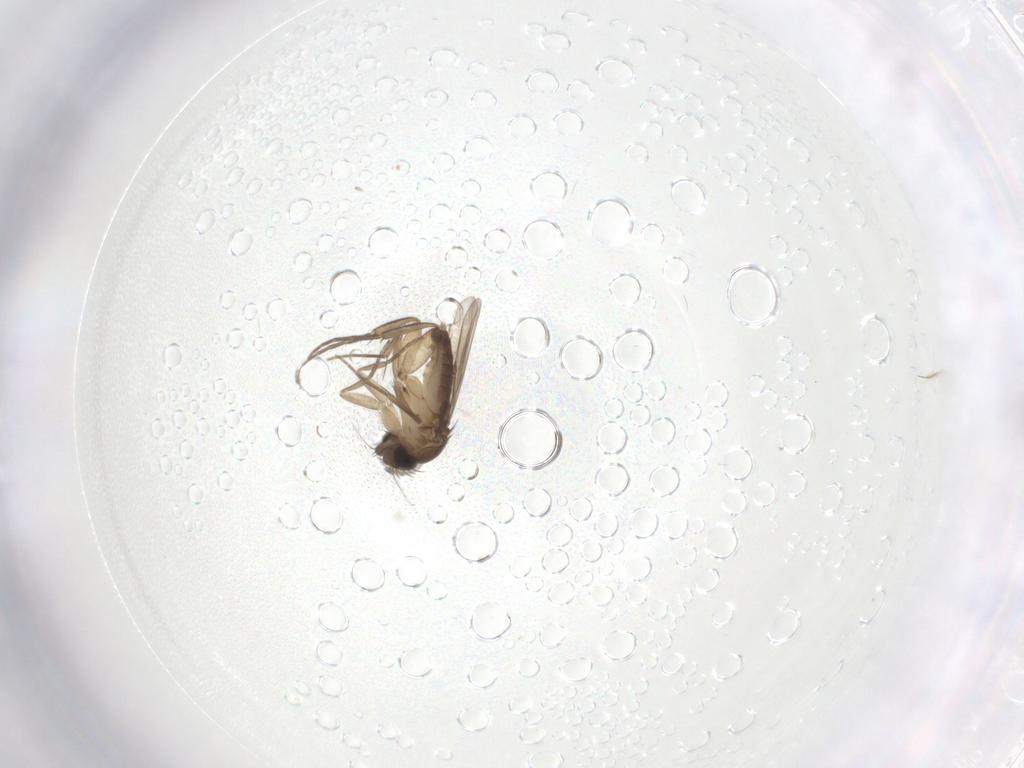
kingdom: Animalia
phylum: Arthropoda
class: Insecta
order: Diptera
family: Phoridae
